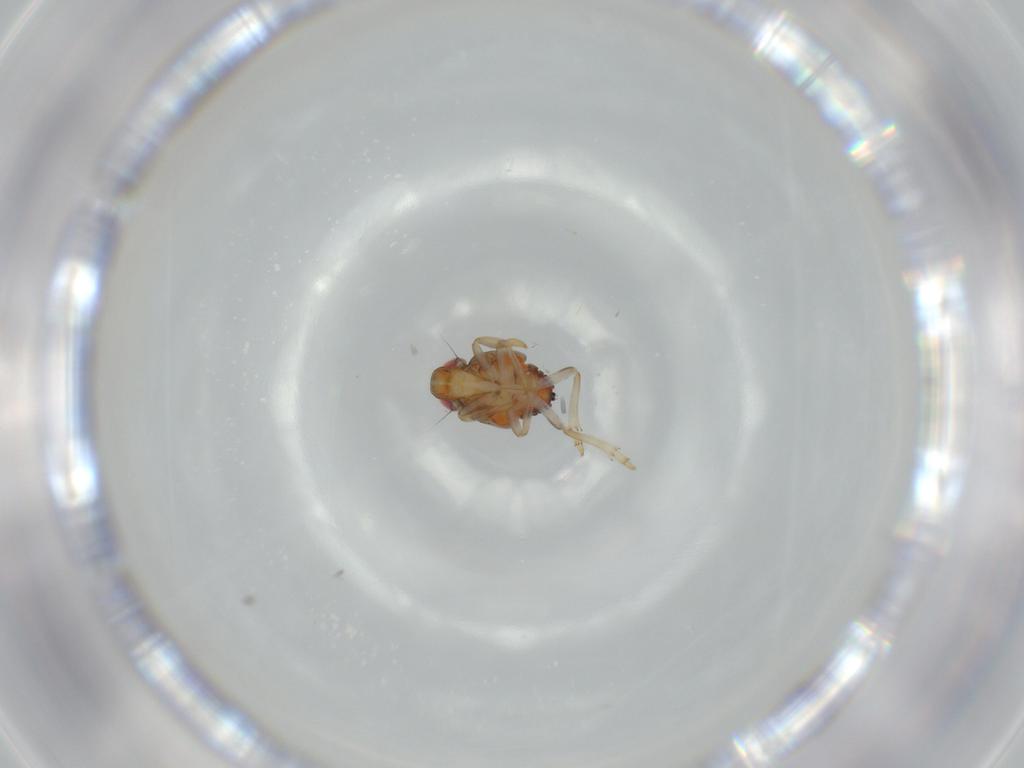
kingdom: Animalia
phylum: Arthropoda
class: Insecta
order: Hemiptera
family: Issidae
